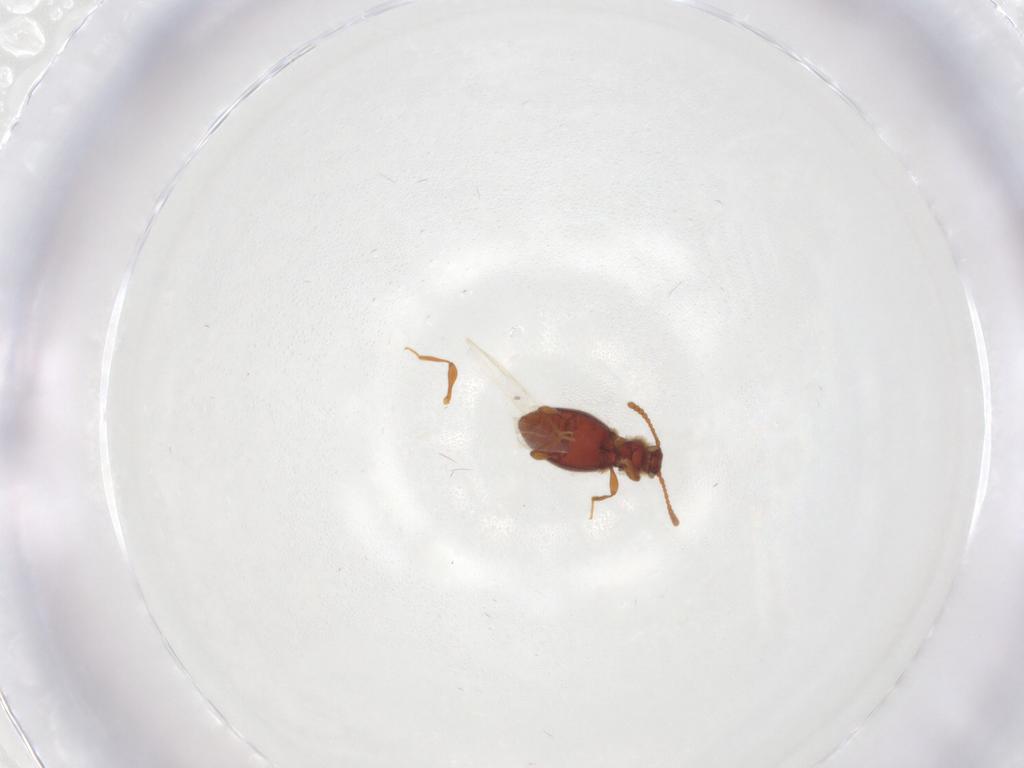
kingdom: Animalia
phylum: Arthropoda
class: Insecta
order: Coleoptera
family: Staphylinidae
